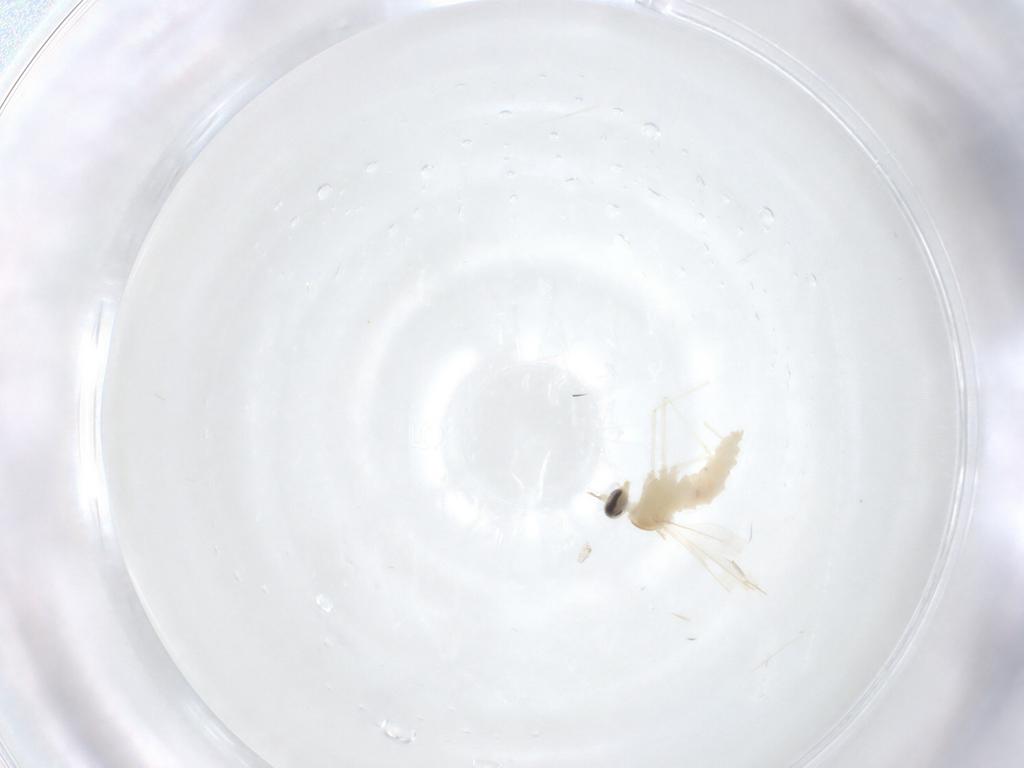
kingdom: Animalia
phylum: Arthropoda
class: Insecta
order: Diptera
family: Cecidomyiidae
